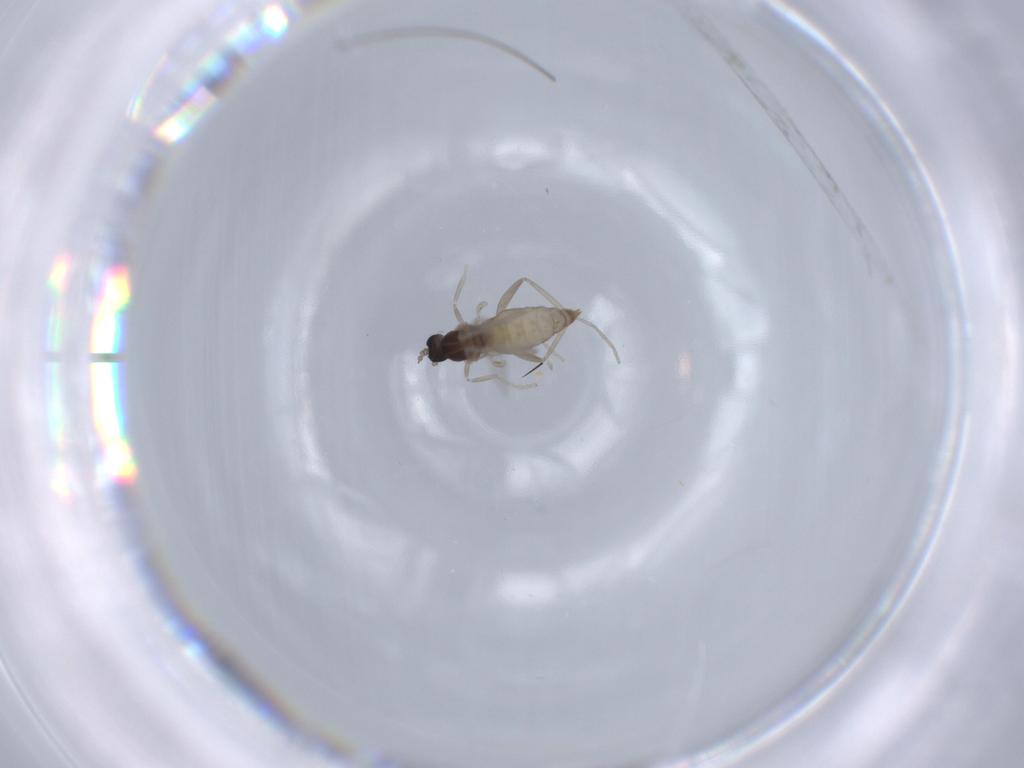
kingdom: Animalia
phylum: Arthropoda
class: Insecta
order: Diptera
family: Cecidomyiidae
